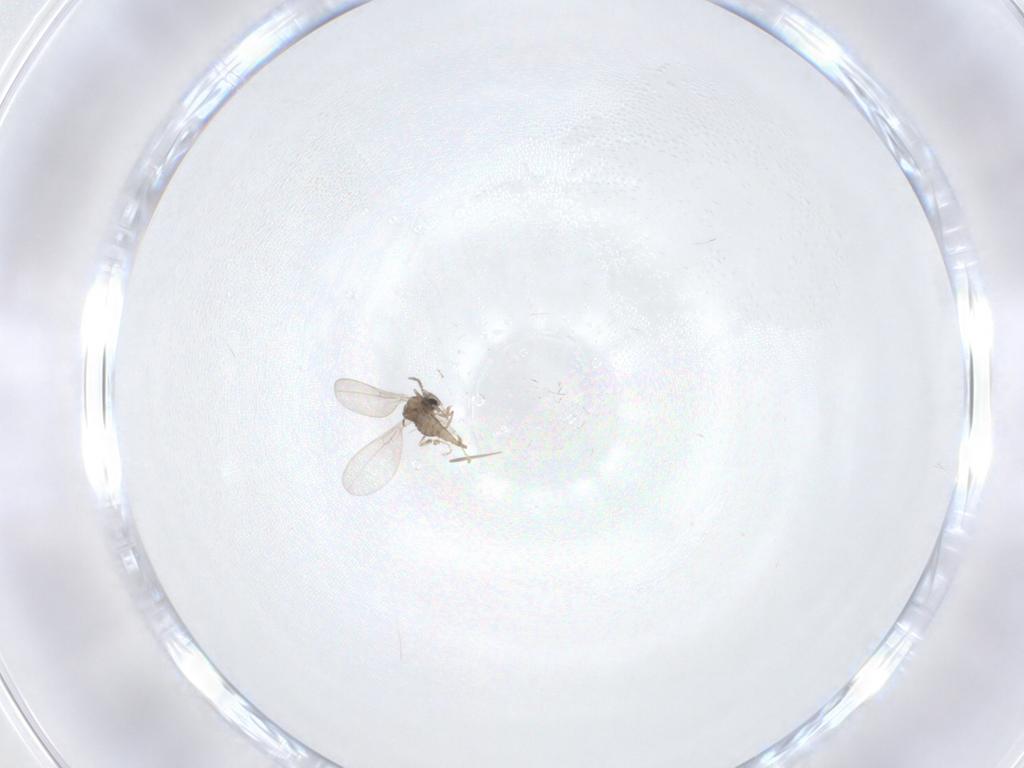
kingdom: Animalia
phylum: Arthropoda
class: Insecta
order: Diptera
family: Cecidomyiidae
